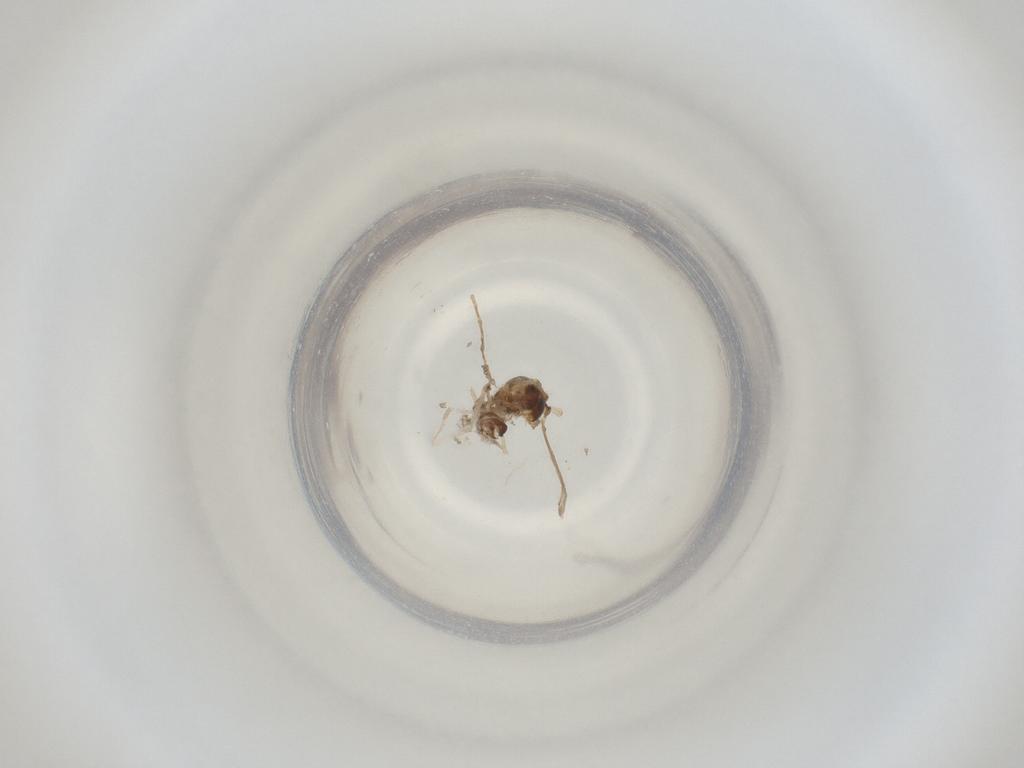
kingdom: Animalia
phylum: Arthropoda
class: Insecta
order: Diptera
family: Cecidomyiidae
